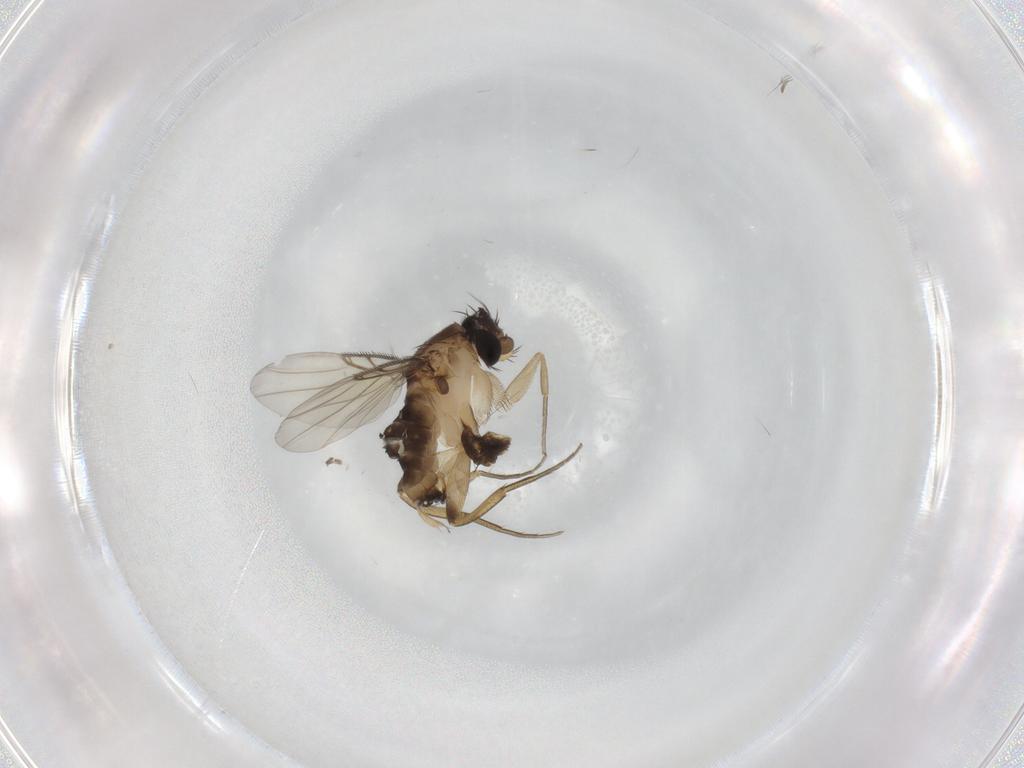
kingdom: Animalia
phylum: Arthropoda
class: Insecta
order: Diptera
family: Phoridae
